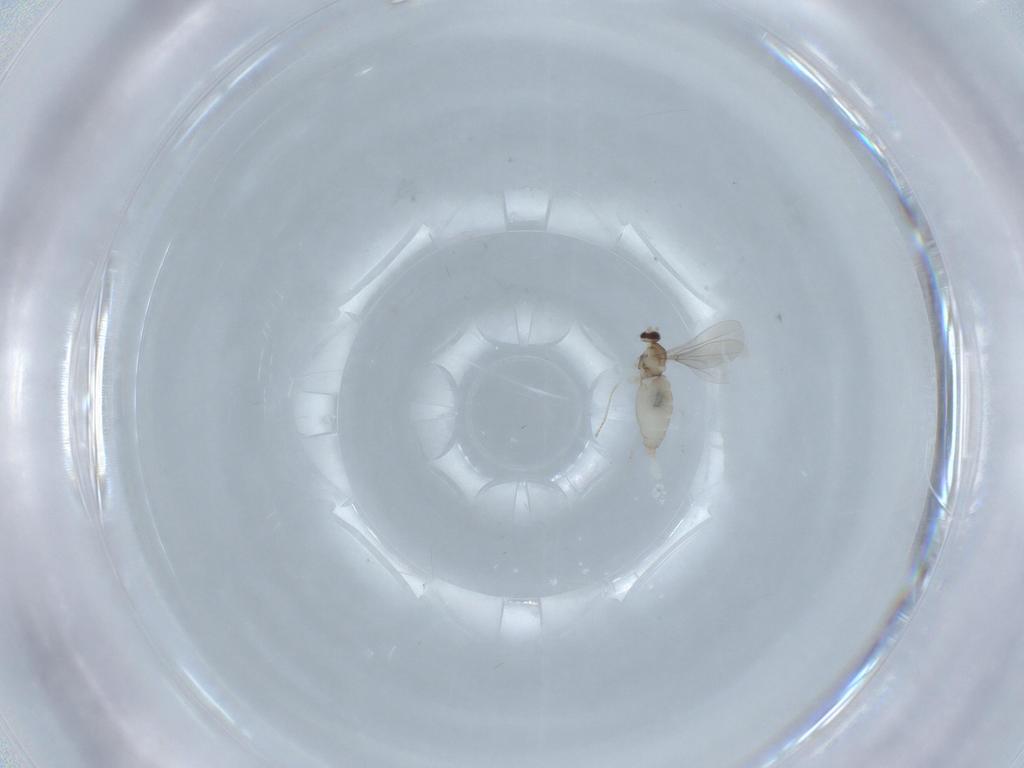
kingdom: Animalia
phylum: Arthropoda
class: Insecta
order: Diptera
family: Cecidomyiidae
